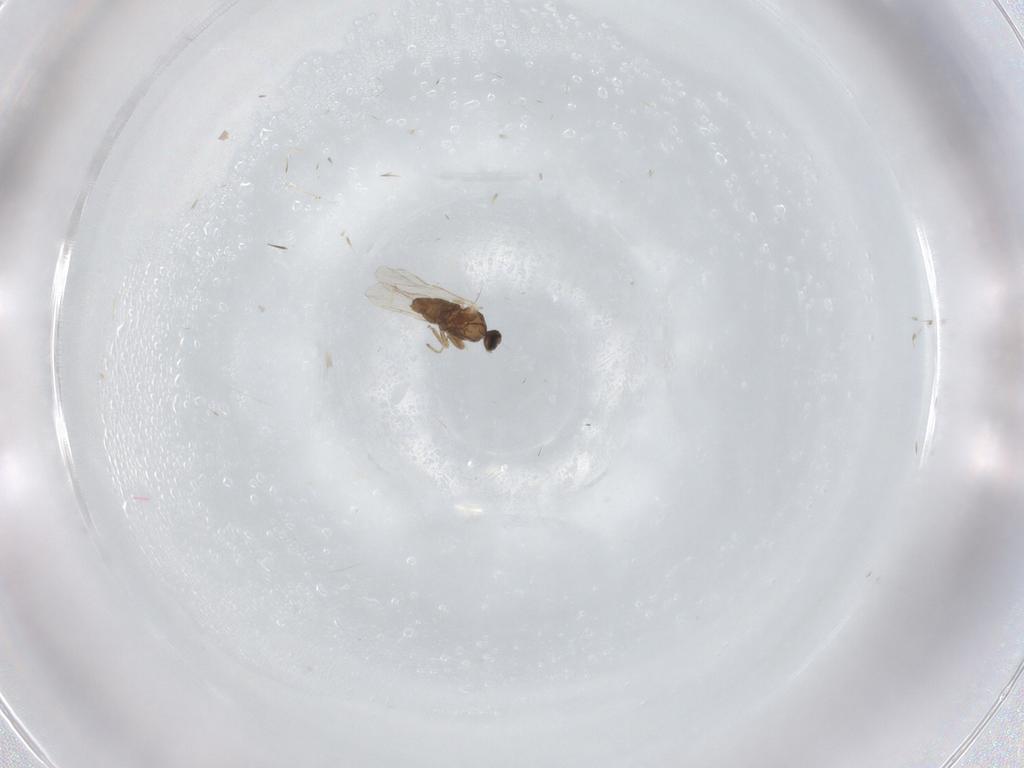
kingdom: Animalia
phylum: Arthropoda
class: Insecta
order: Diptera
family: Cecidomyiidae
